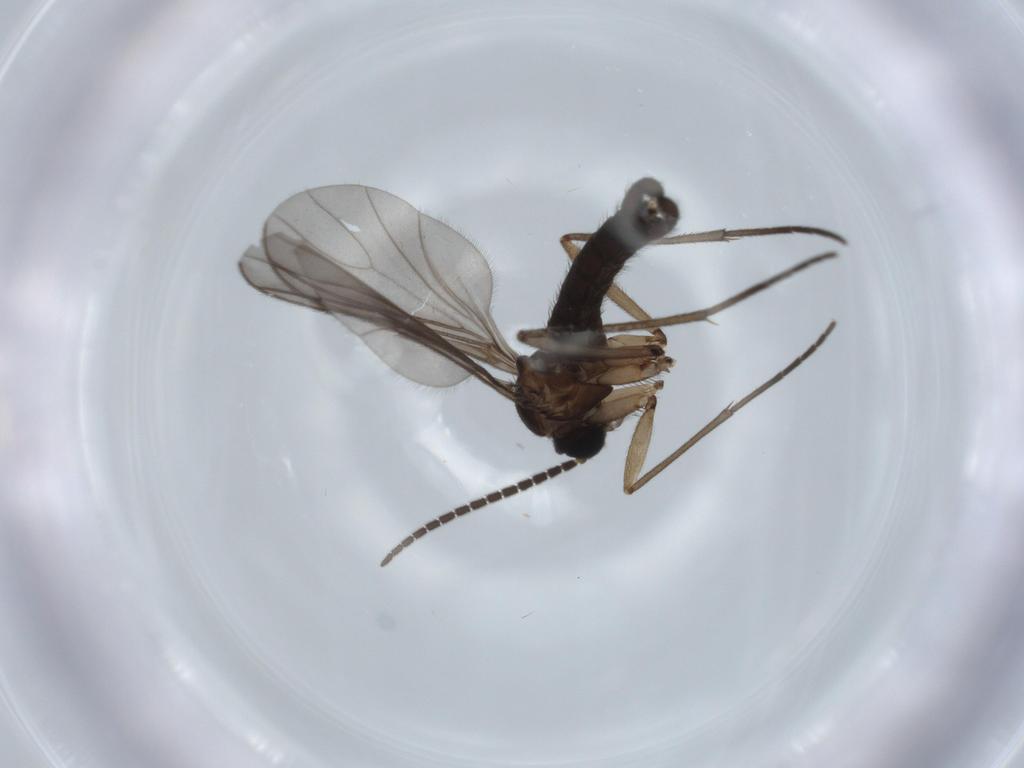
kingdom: Animalia
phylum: Arthropoda
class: Insecta
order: Diptera
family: Sciaridae
